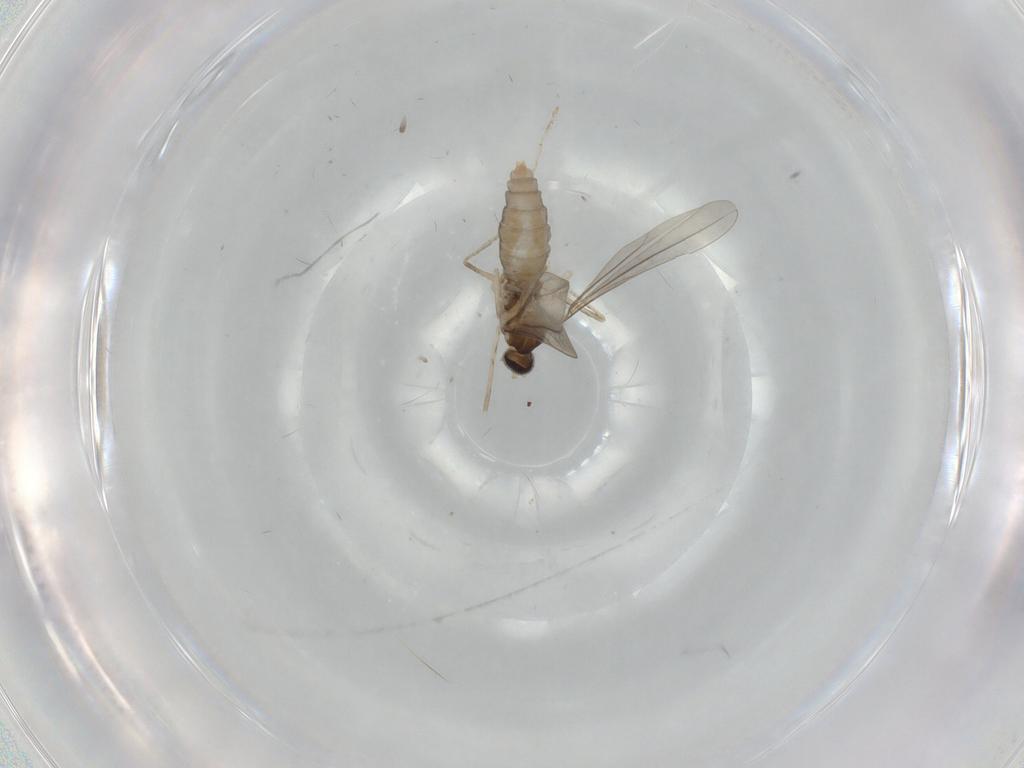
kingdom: Animalia
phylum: Arthropoda
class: Insecta
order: Diptera
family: Cecidomyiidae
